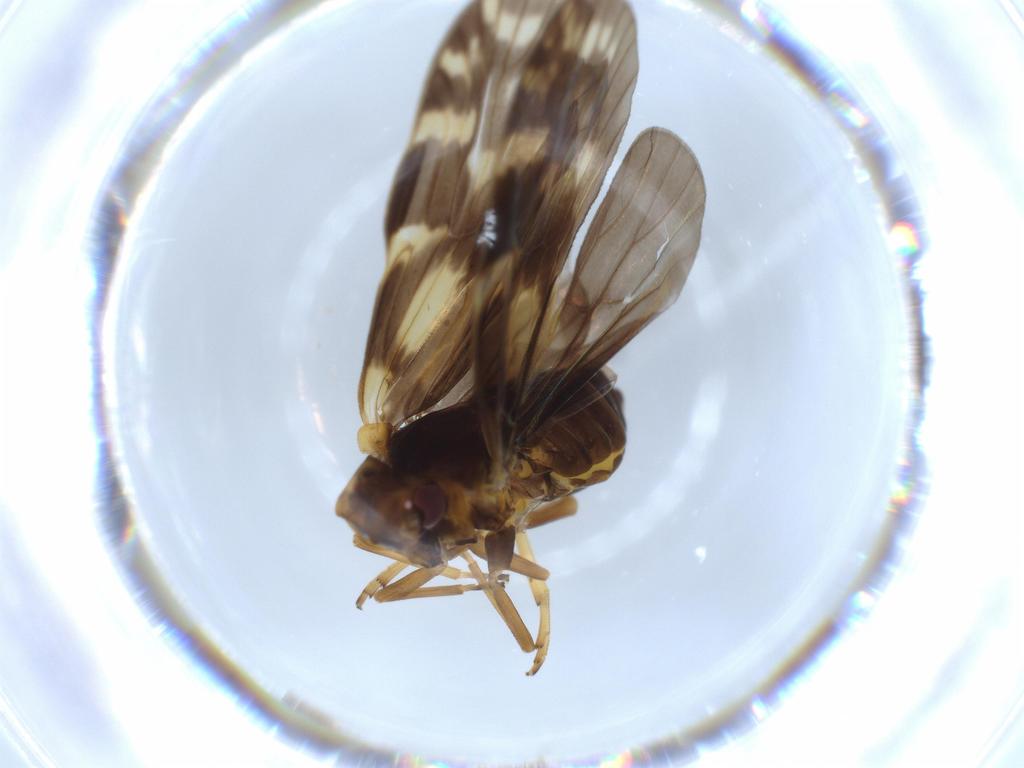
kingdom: Animalia
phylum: Arthropoda
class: Insecta
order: Hemiptera
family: Cixiidae
